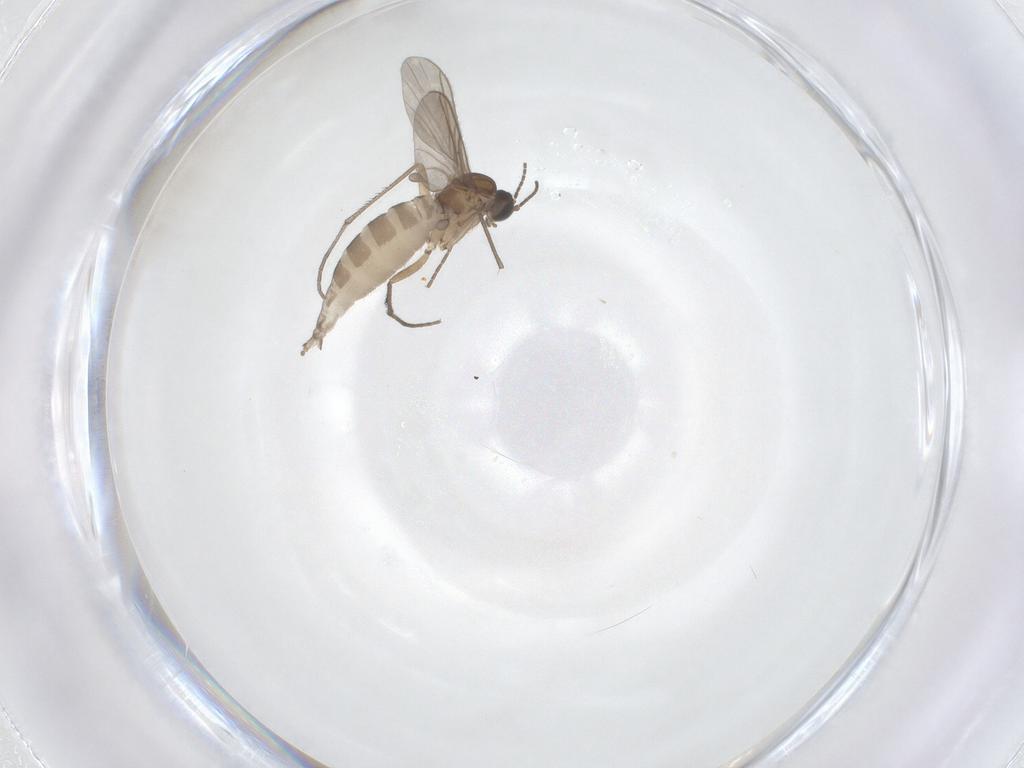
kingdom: Animalia
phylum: Arthropoda
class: Insecta
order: Diptera
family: Sciaridae
